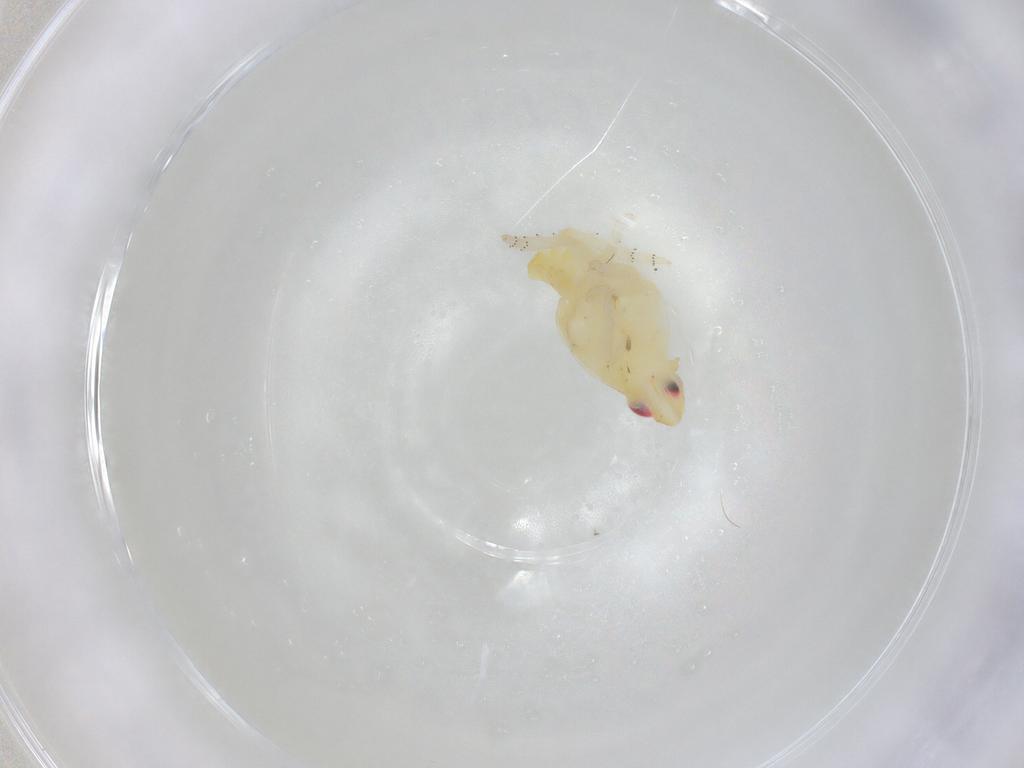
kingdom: Animalia
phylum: Arthropoda
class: Insecta
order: Hemiptera
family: Tropiduchidae
